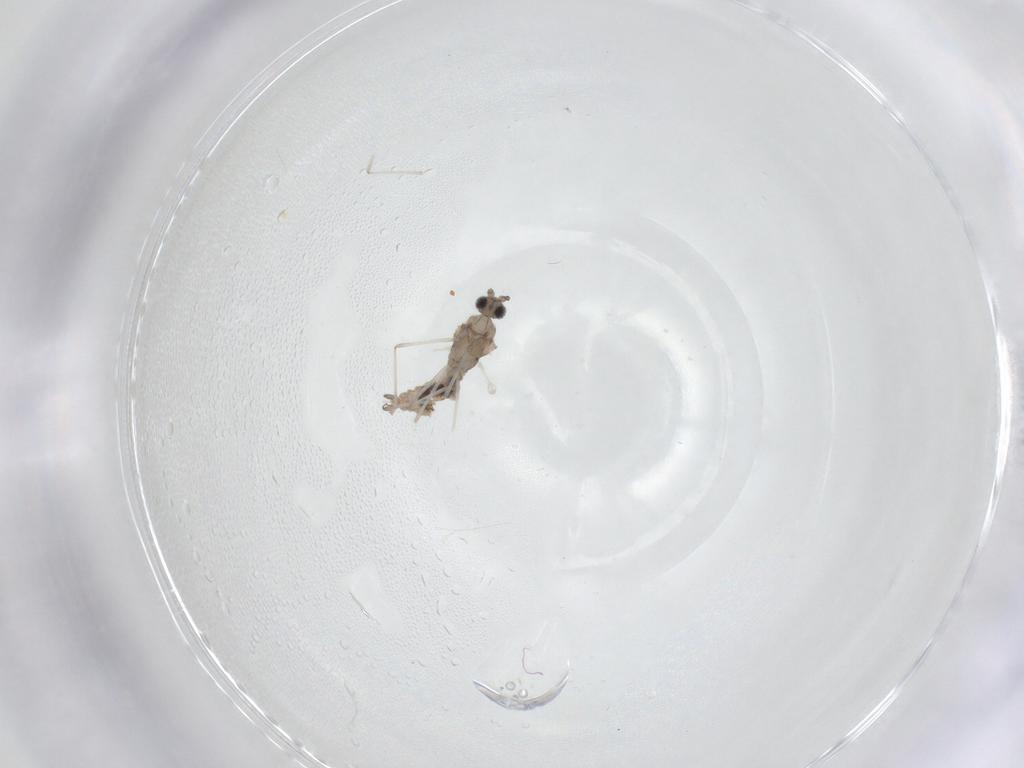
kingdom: Animalia
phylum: Arthropoda
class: Insecta
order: Diptera
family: Cecidomyiidae
